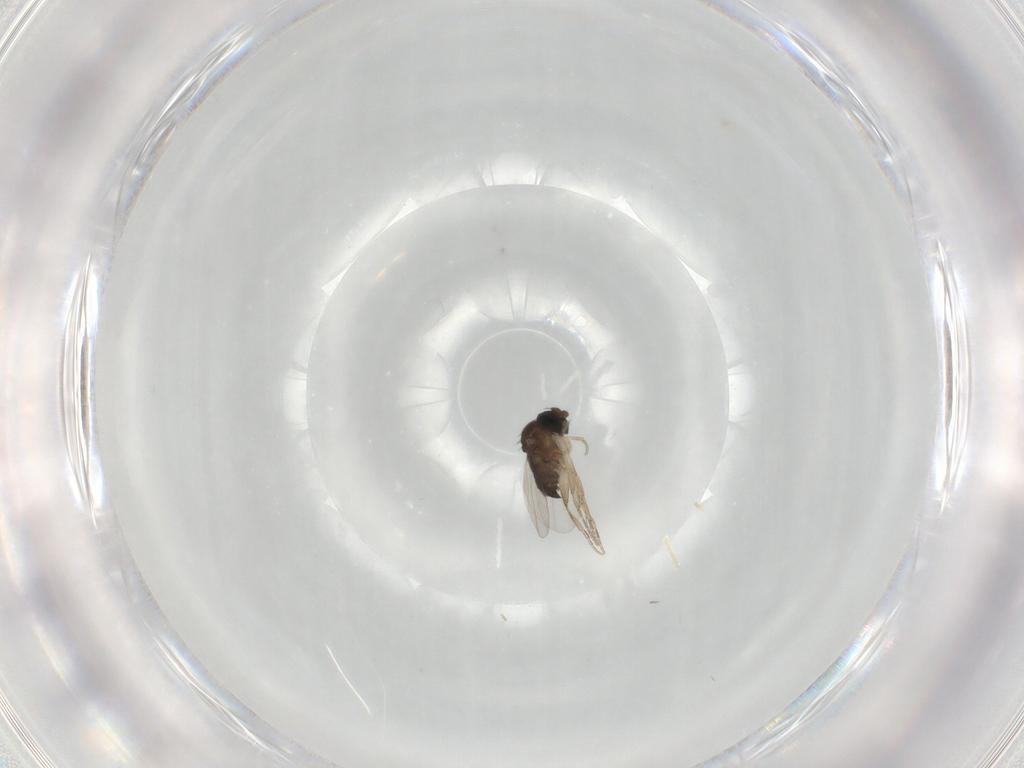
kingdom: Animalia
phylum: Arthropoda
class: Insecta
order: Diptera
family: Phoridae
